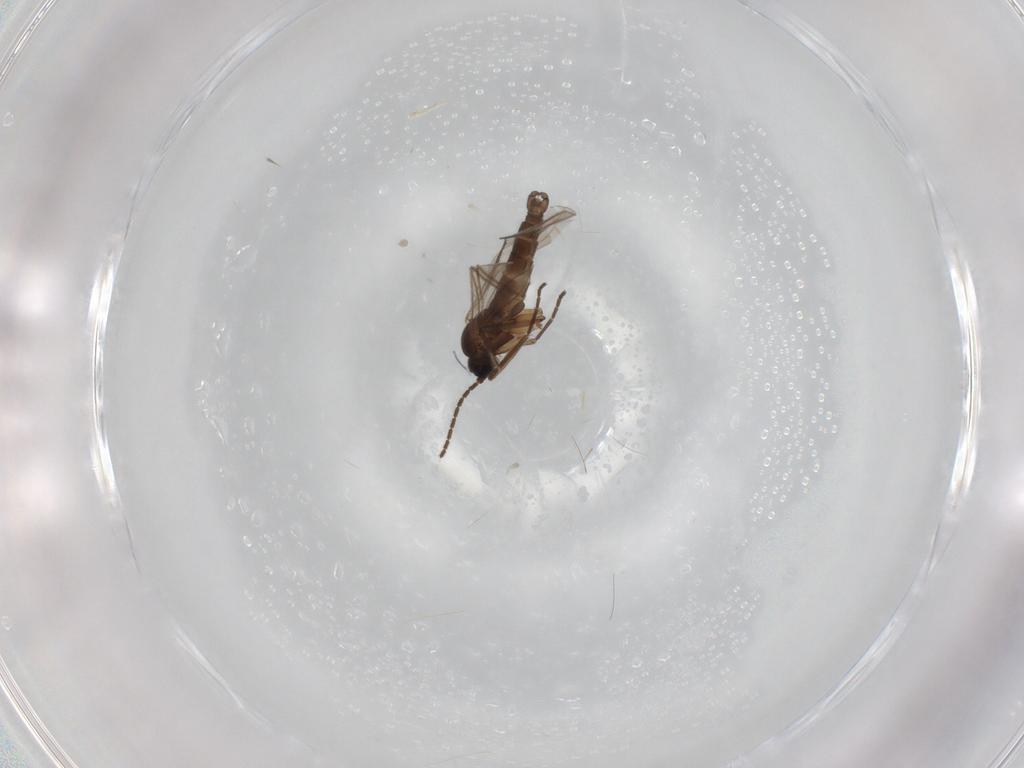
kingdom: Animalia
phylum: Arthropoda
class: Insecta
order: Diptera
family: Sciaridae
